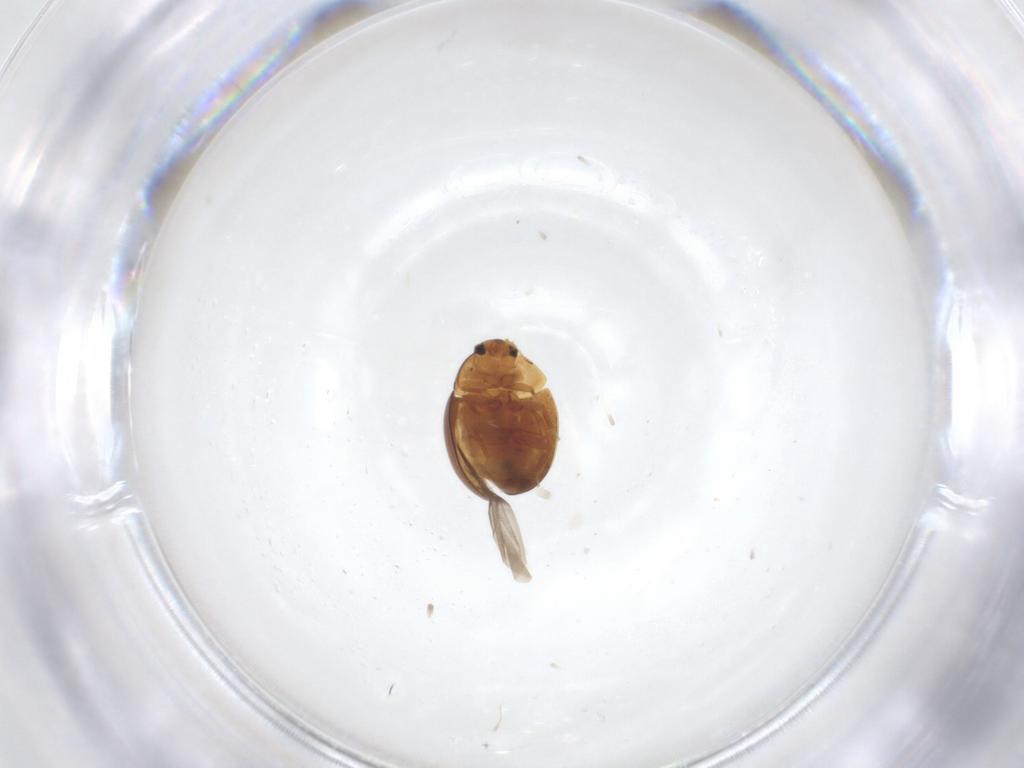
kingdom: Animalia
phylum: Arthropoda
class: Insecta
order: Coleoptera
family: Corylophidae
